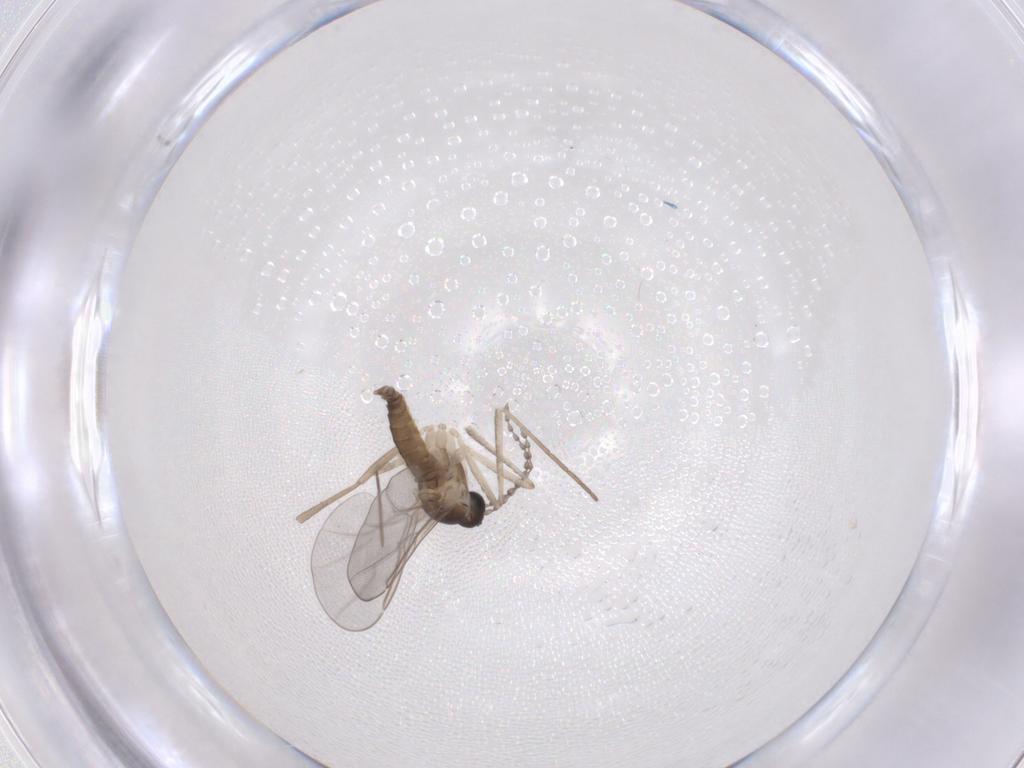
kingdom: Animalia
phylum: Arthropoda
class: Insecta
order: Diptera
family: Cecidomyiidae
